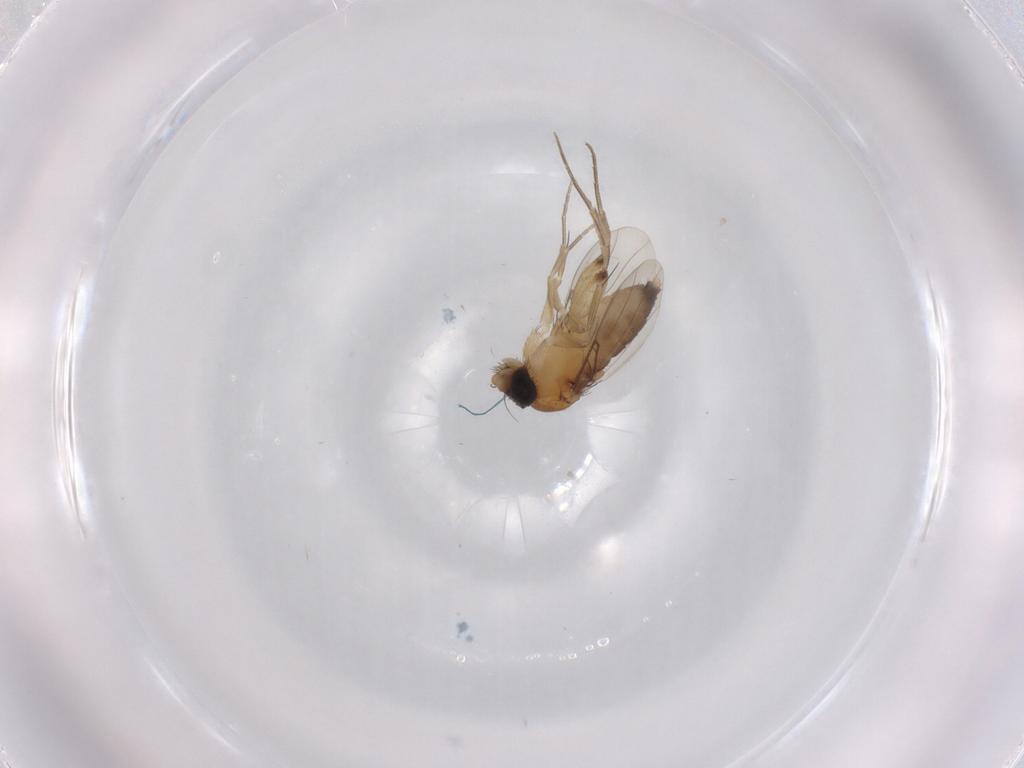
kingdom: Animalia
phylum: Arthropoda
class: Insecta
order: Diptera
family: Phoridae
